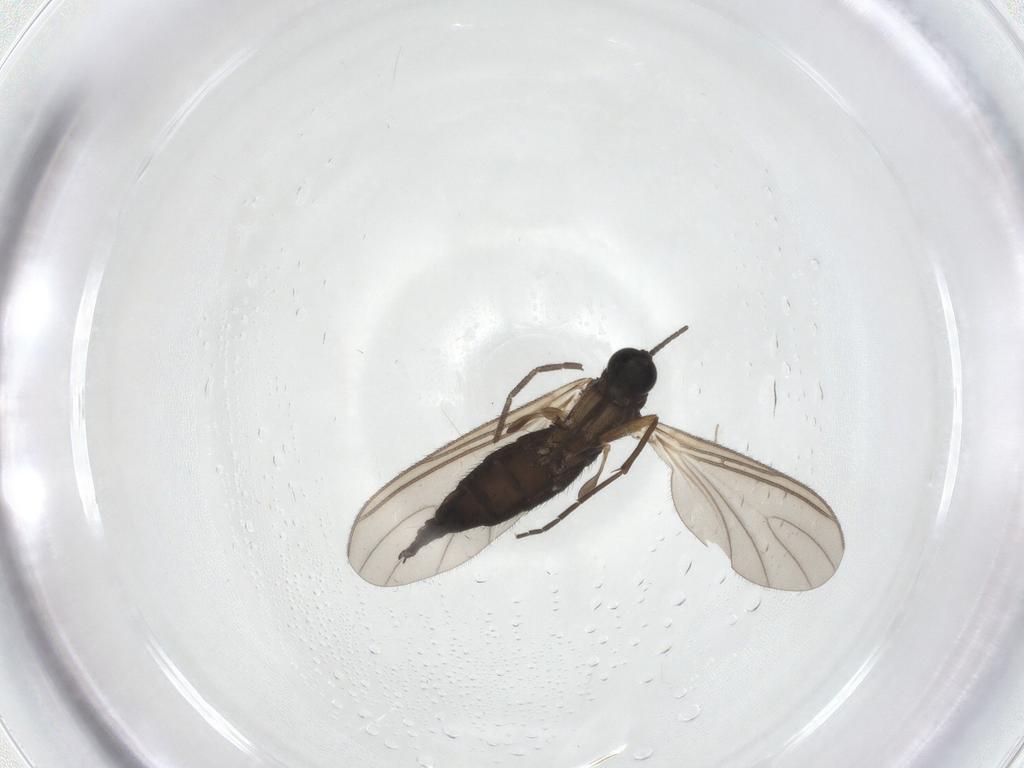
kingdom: Animalia
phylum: Arthropoda
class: Insecta
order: Diptera
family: Sciaridae
